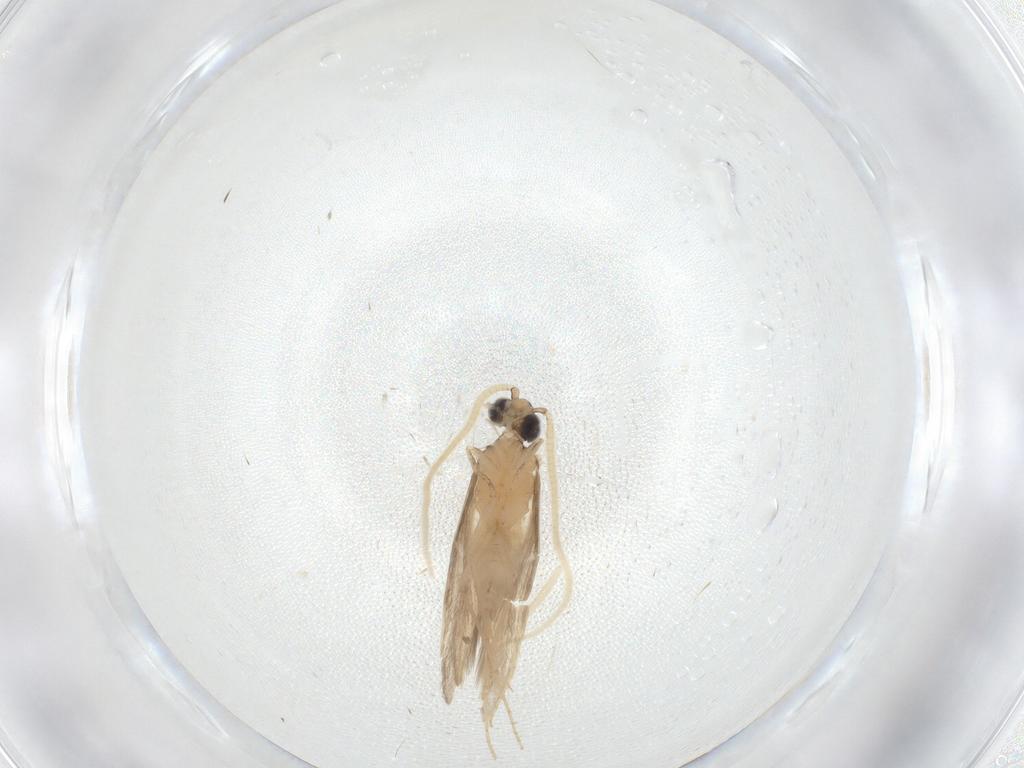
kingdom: Animalia
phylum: Arthropoda
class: Insecta
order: Trichoptera
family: Hydroptilidae
